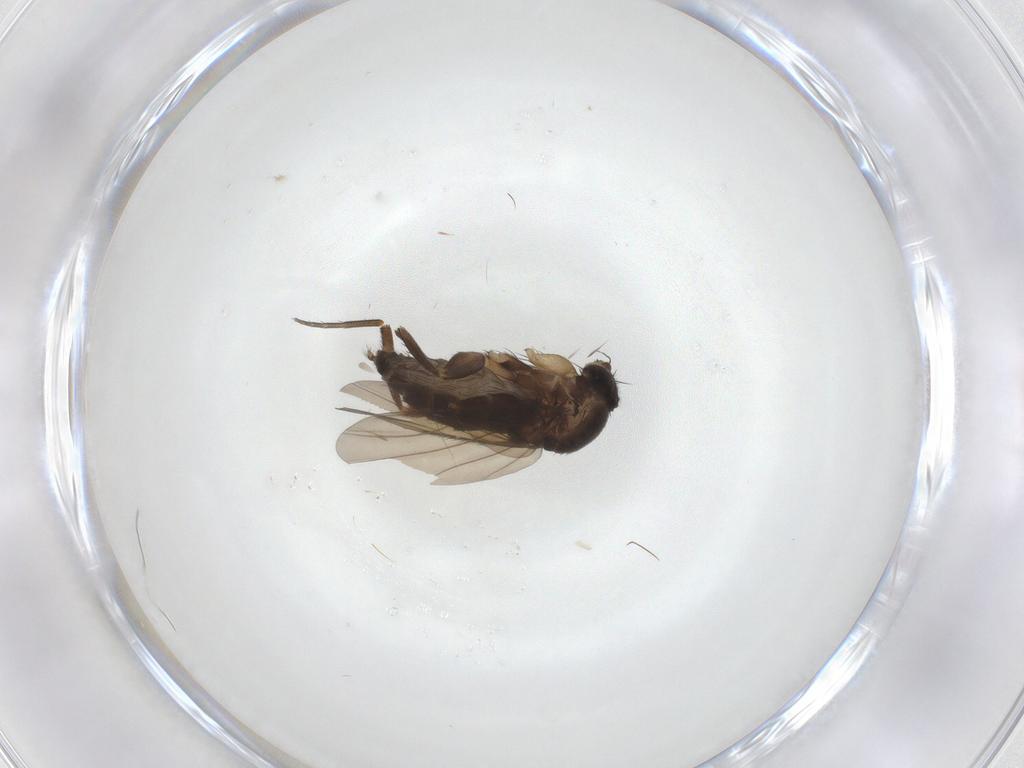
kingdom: Animalia
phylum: Arthropoda
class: Insecta
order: Diptera
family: Phoridae
